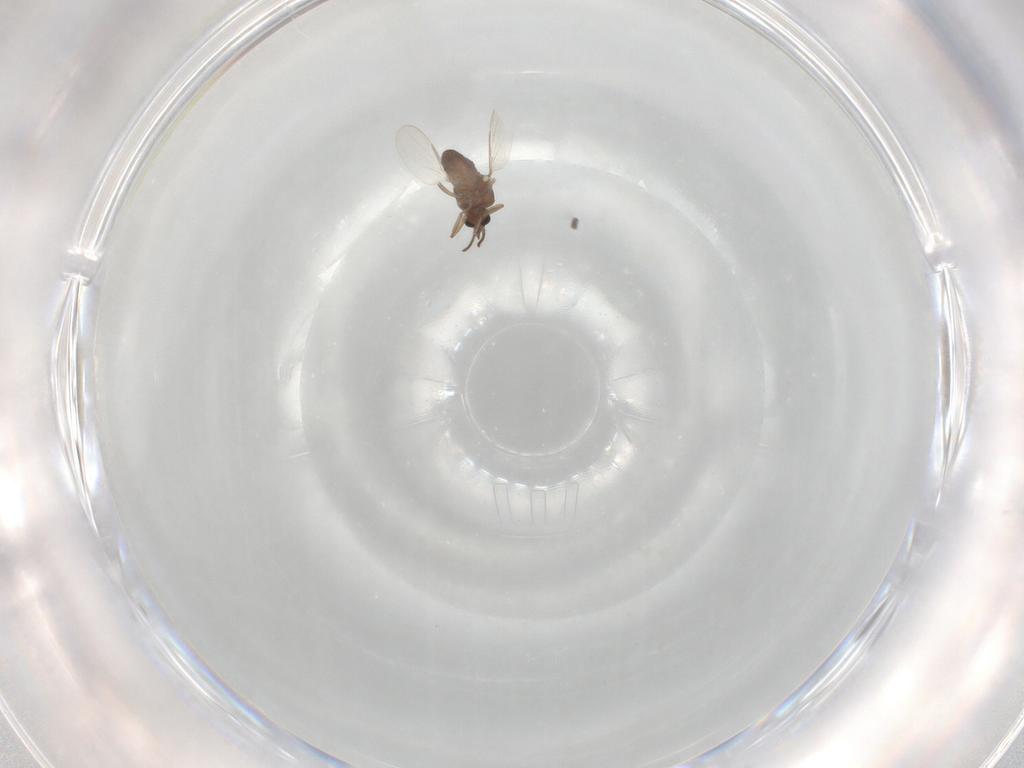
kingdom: Animalia
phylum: Arthropoda
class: Insecta
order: Diptera
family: Ceratopogonidae
